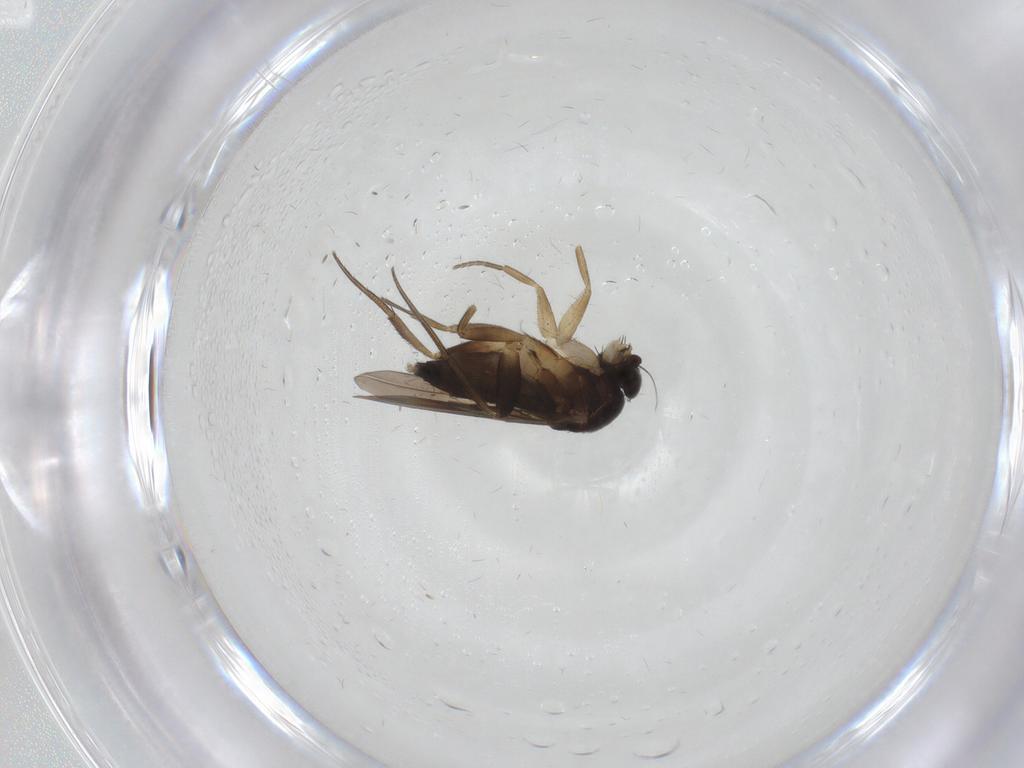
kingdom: Animalia
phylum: Arthropoda
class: Insecta
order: Diptera
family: Phoridae
